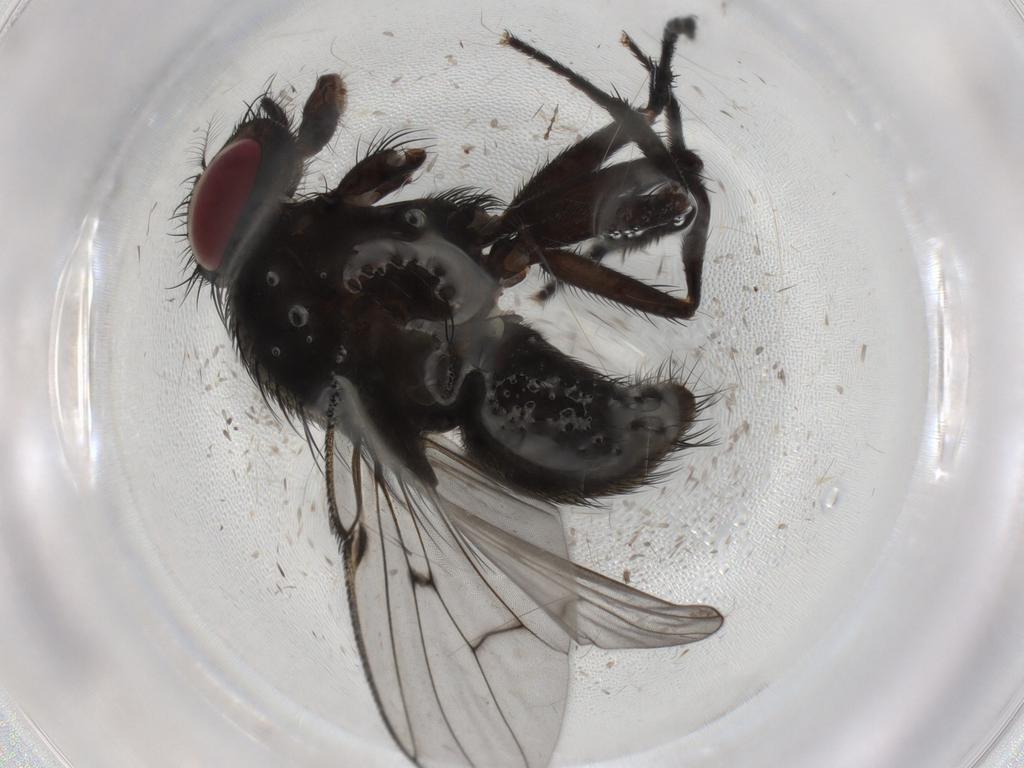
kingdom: Animalia
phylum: Arthropoda
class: Insecta
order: Diptera
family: Muscidae
